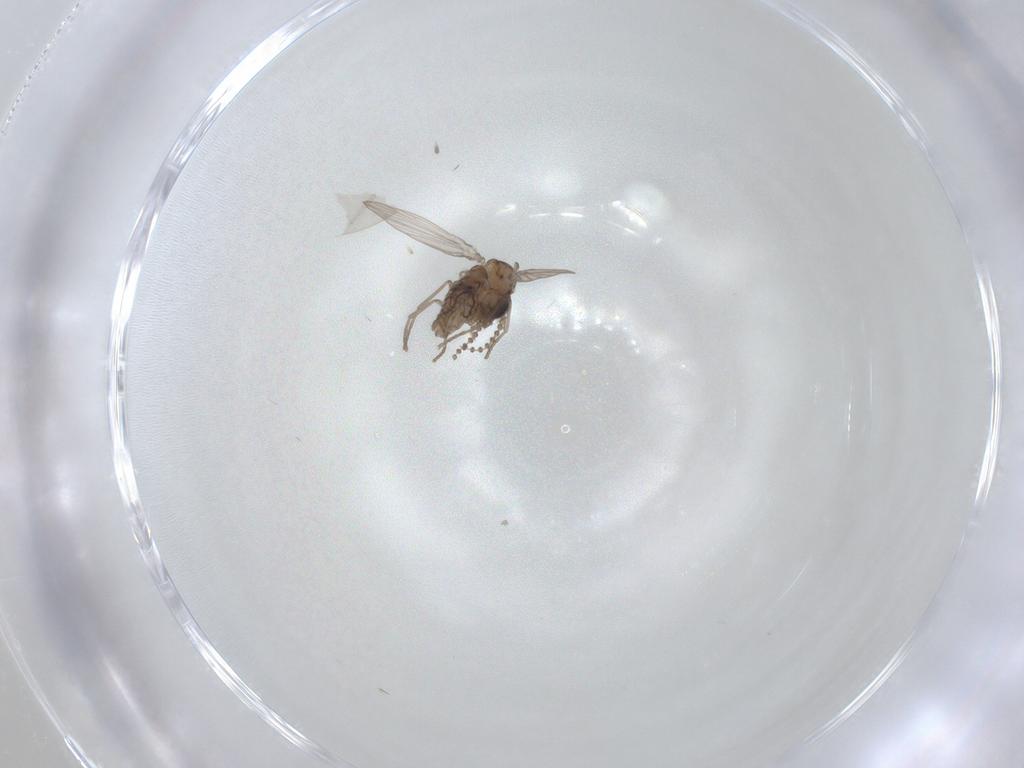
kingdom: Animalia
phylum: Arthropoda
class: Insecta
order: Diptera
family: Psychodidae
